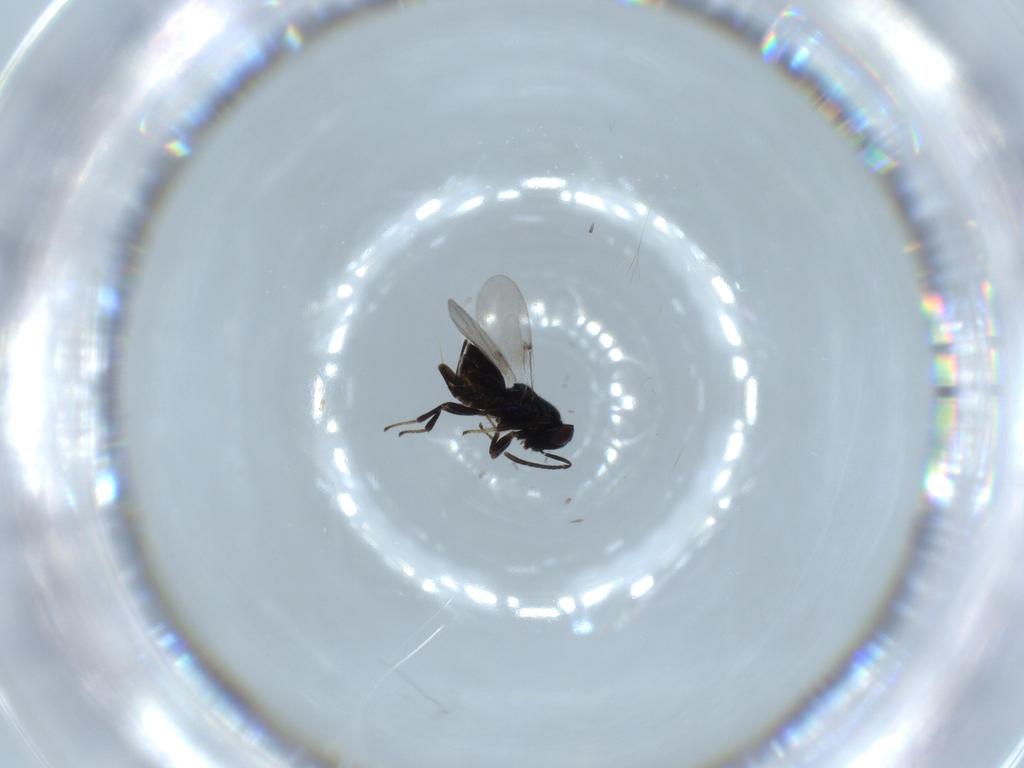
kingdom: Animalia
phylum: Arthropoda
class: Insecta
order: Hymenoptera
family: Encyrtidae
